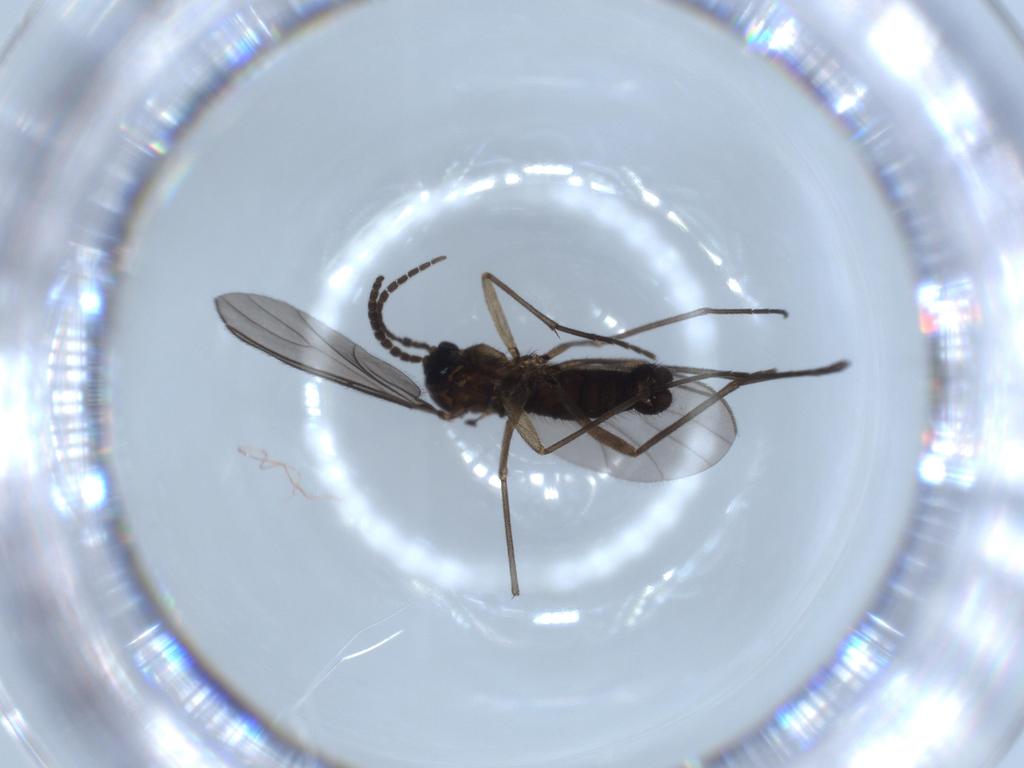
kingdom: Animalia
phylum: Arthropoda
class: Insecta
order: Diptera
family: Sciaridae
